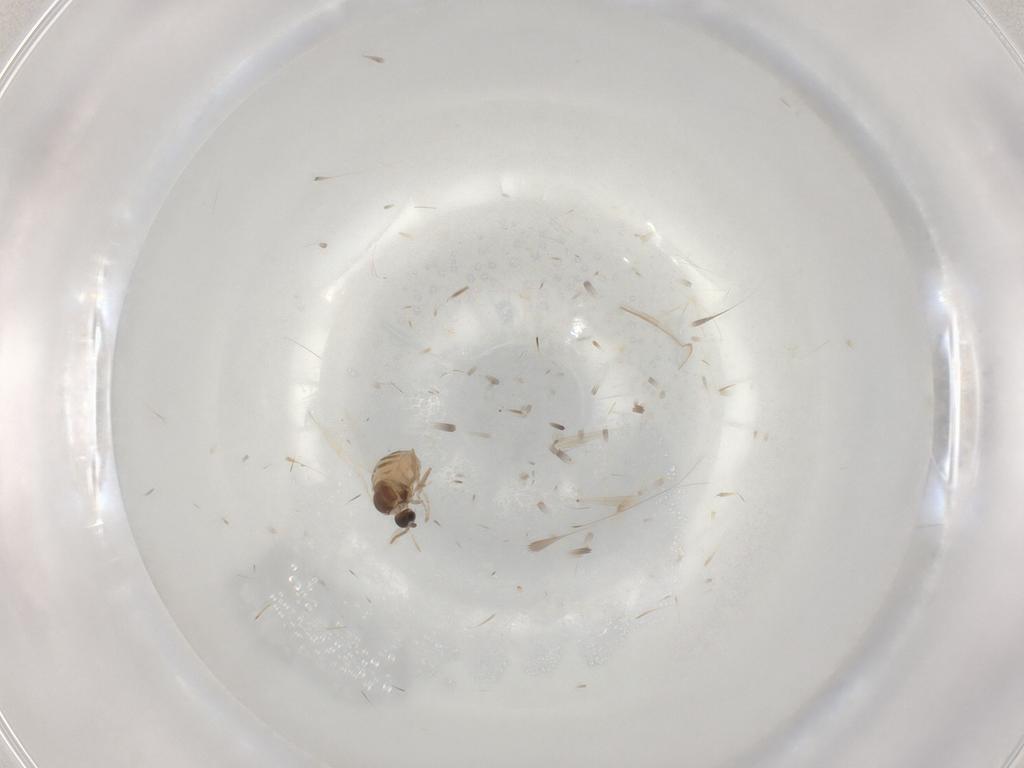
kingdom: Animalia
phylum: Arthropoda
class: Insecta
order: Diptera
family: Cecidomyiidae
